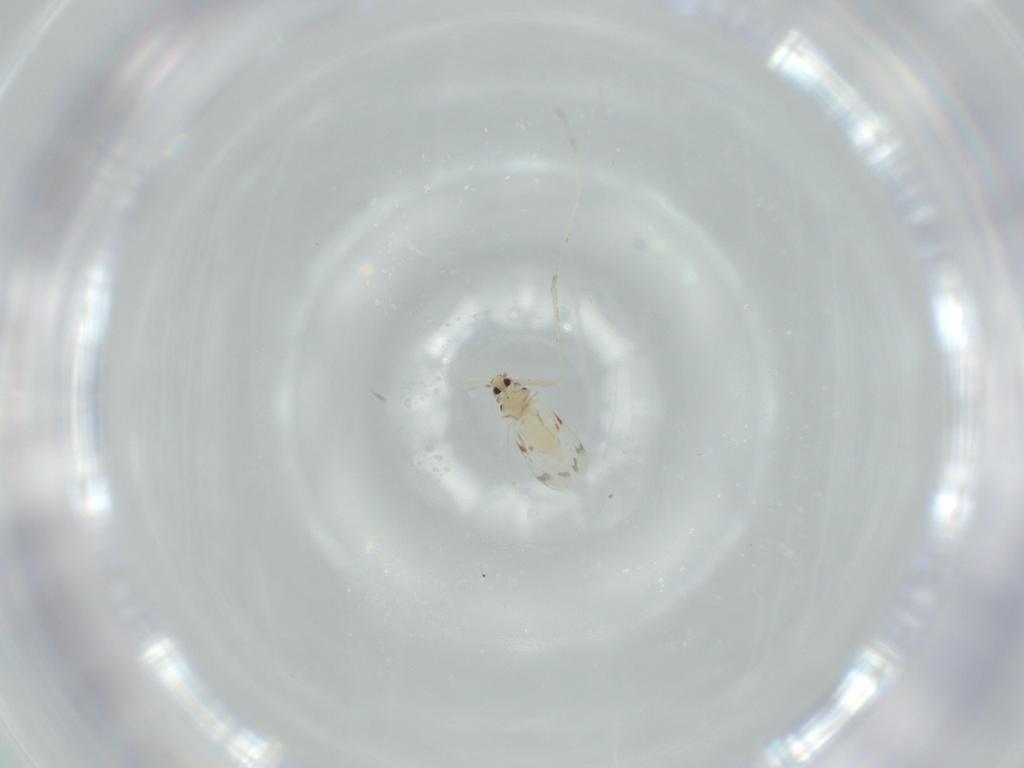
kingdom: Animalia
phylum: Arthropoda
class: Insecta
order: Hemiptera
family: Aleyrodidae
